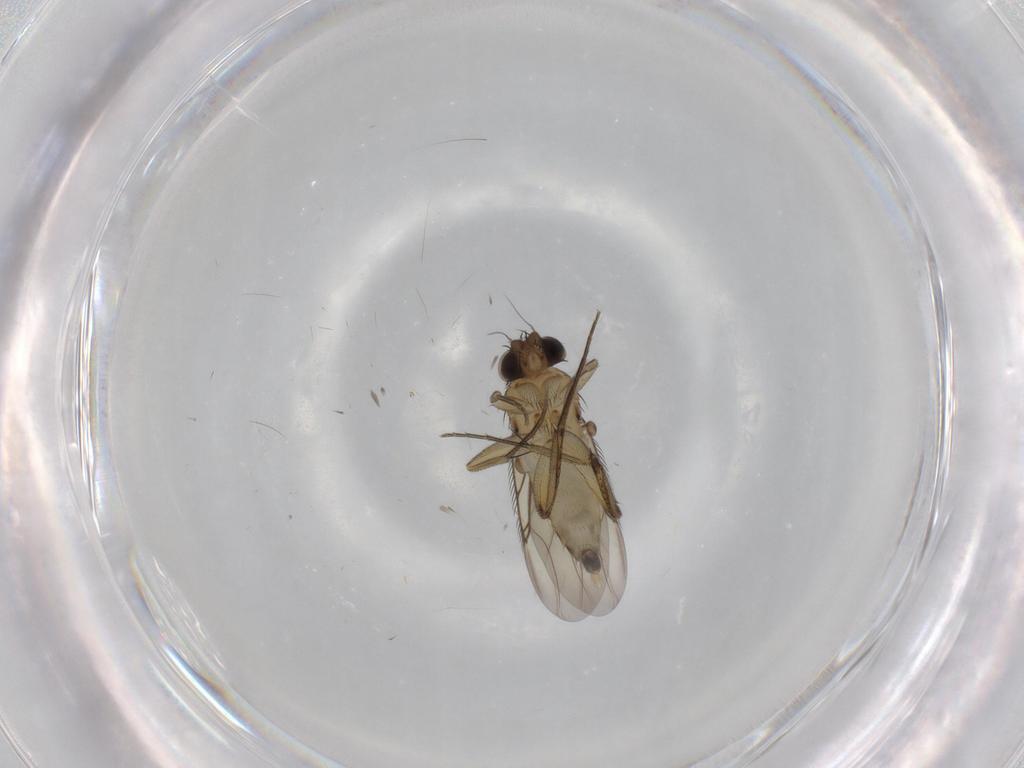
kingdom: Animalia
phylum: Arthropoda
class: Insecta
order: Diptera
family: Phoridae
